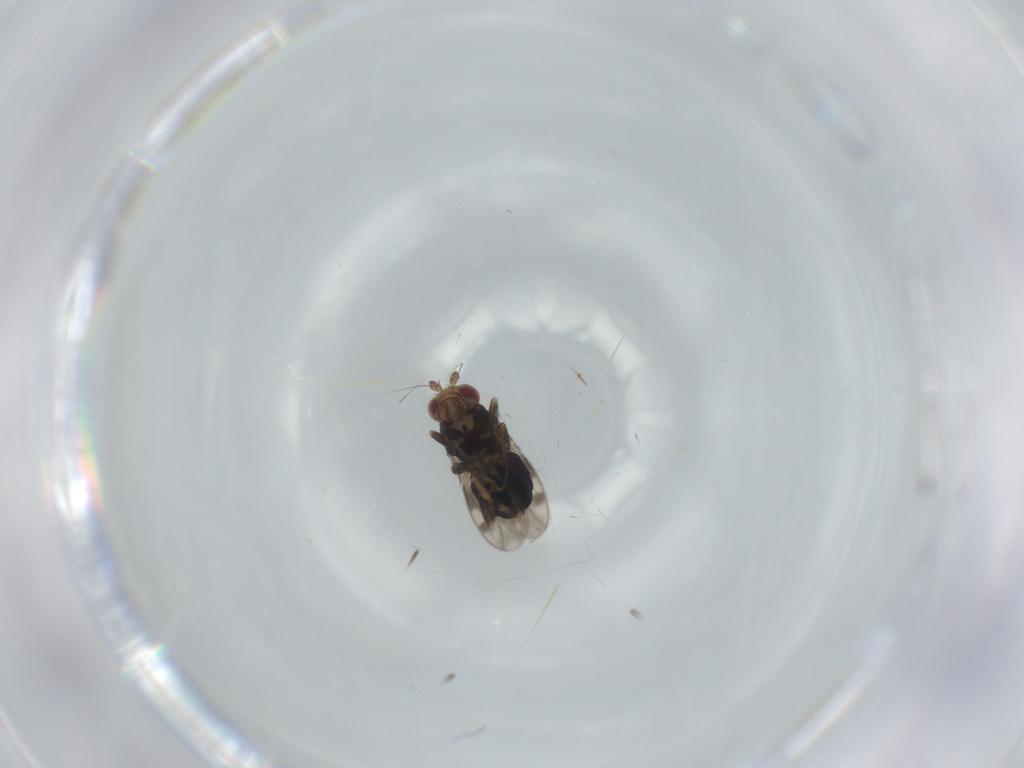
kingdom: Animalia
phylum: Arthropoda
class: Insecta
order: Diptera
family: Sphaeroceridae
